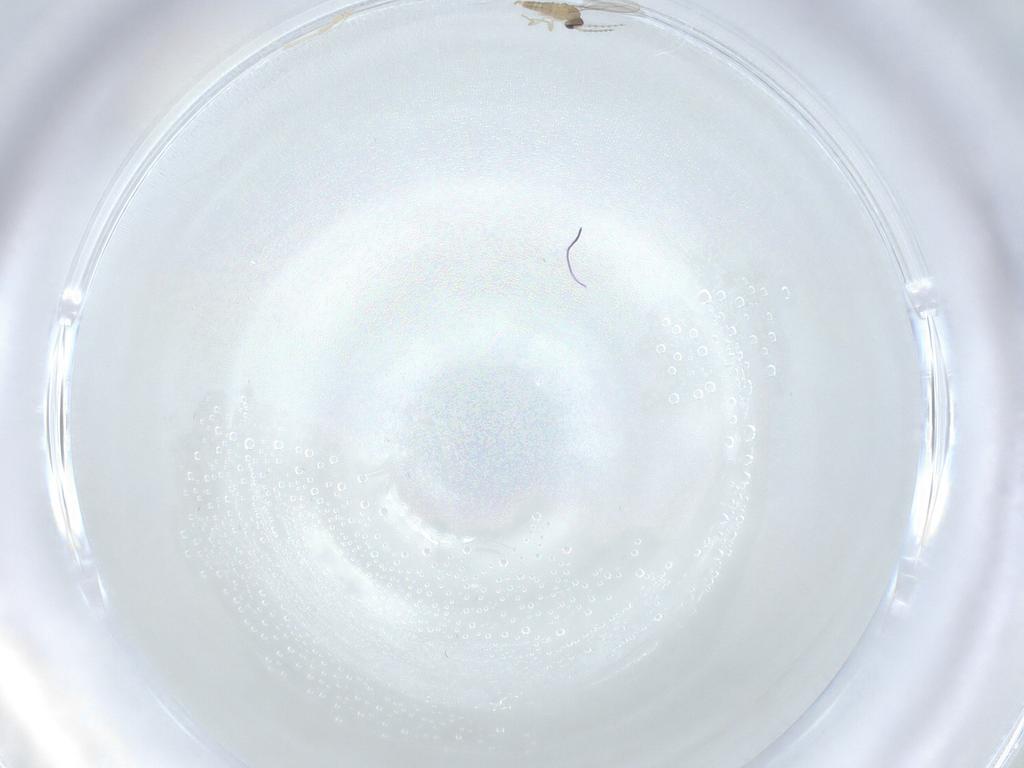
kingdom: Animalia
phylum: Arthropoda
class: Insecta
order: Diptera
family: Cecidomyiidae
